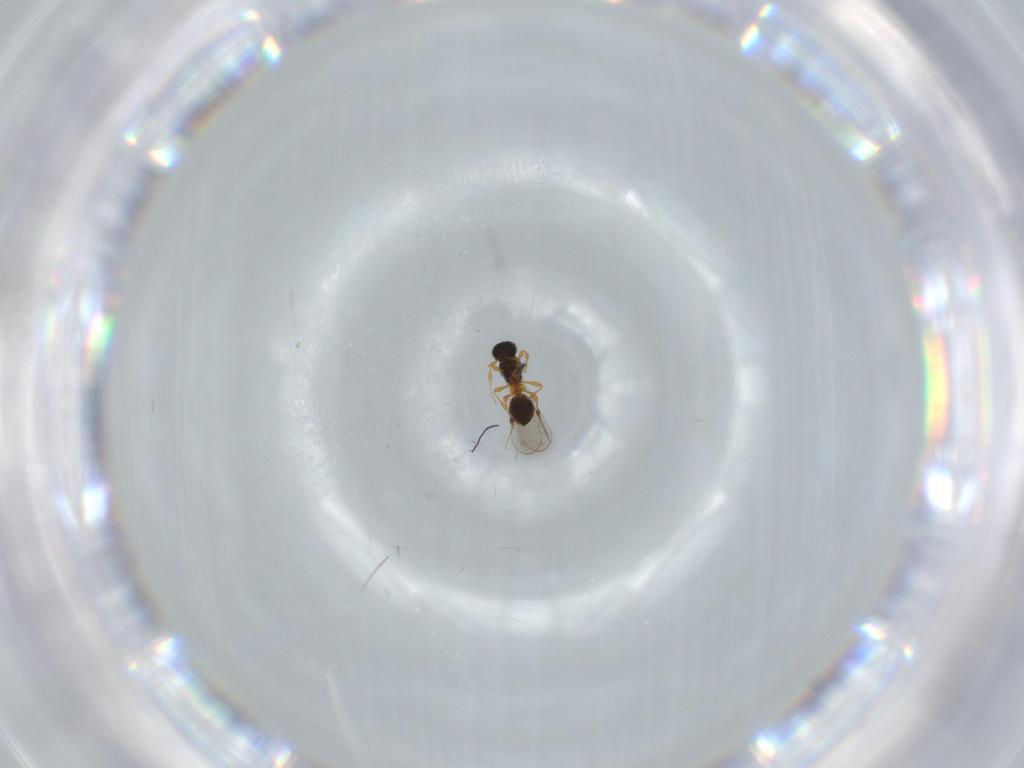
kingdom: Animalia
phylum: Arthropoda
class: Insecta
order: Hymenoptera
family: Platygastridae
